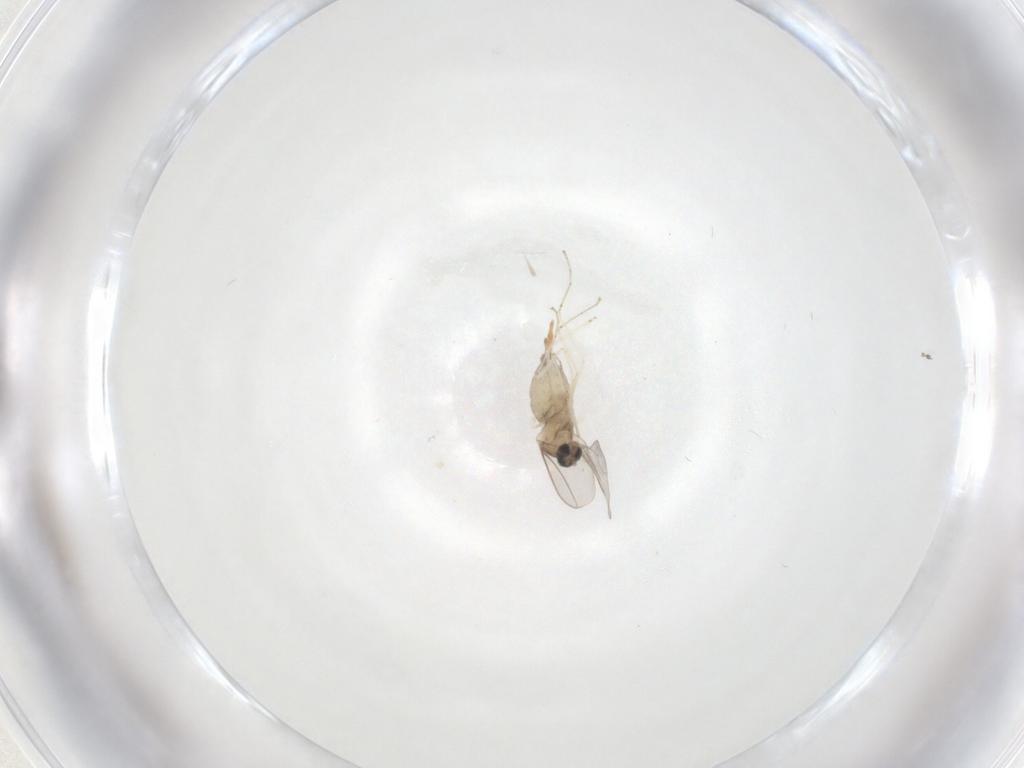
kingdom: Animalia
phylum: Arthropoda
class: Insecta
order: Diptera
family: Cecidomyiidae
